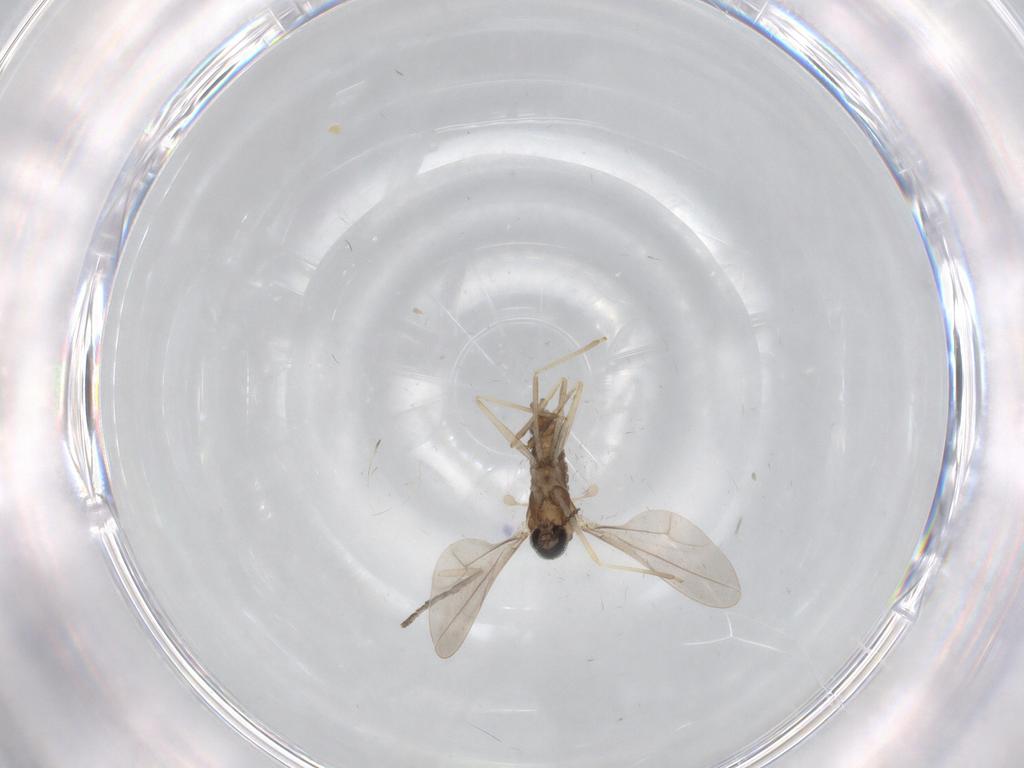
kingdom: Animalia
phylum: Arthropoda
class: Insecta
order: Diptera
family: Cecidomyiidae
